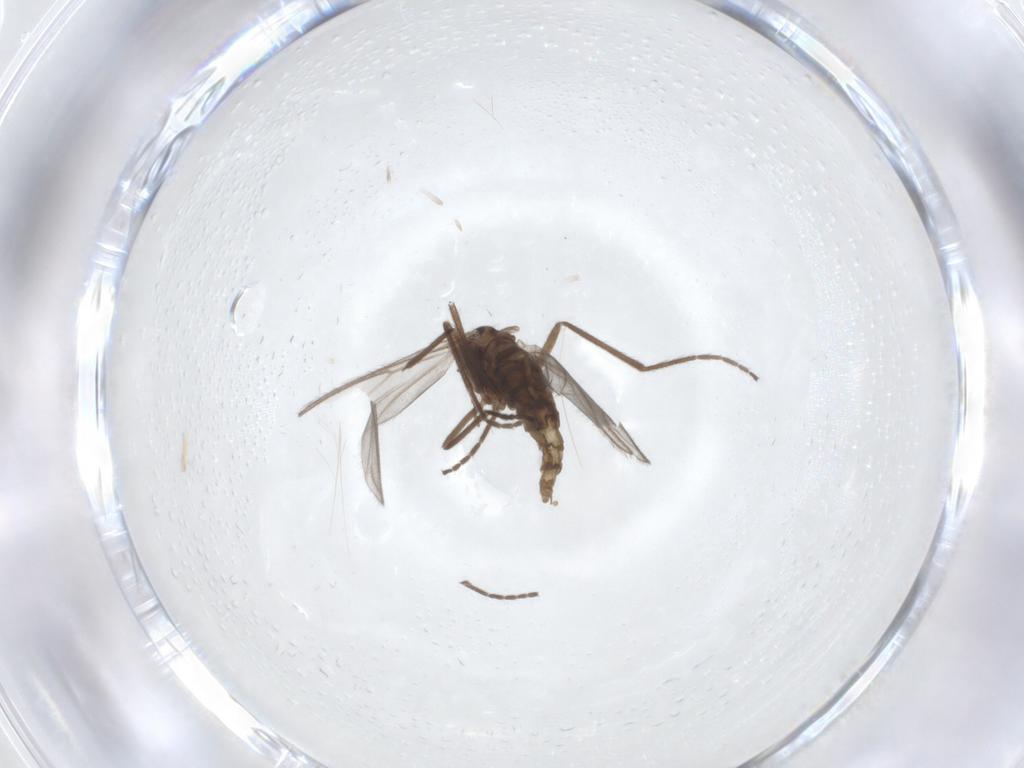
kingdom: Animalia
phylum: Arthropoda
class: Insecta
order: Diptera
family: Cecidomyiidae
